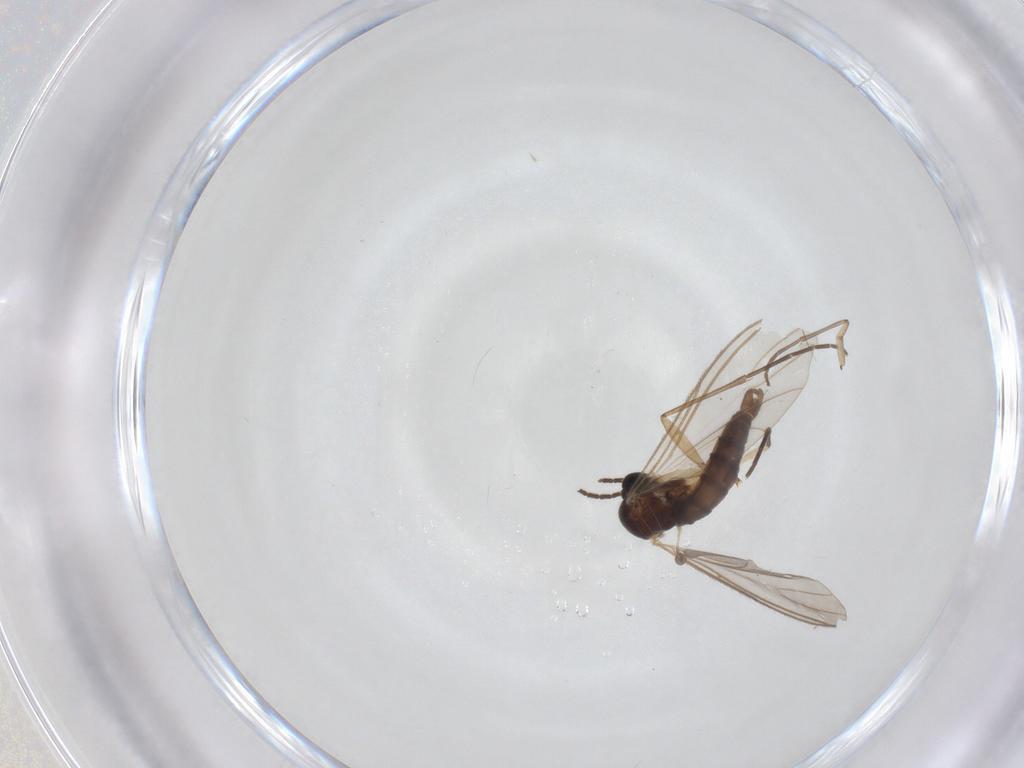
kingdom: Animalia
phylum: Arthropoda
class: Insecta
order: Diptera
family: Sciaridae
